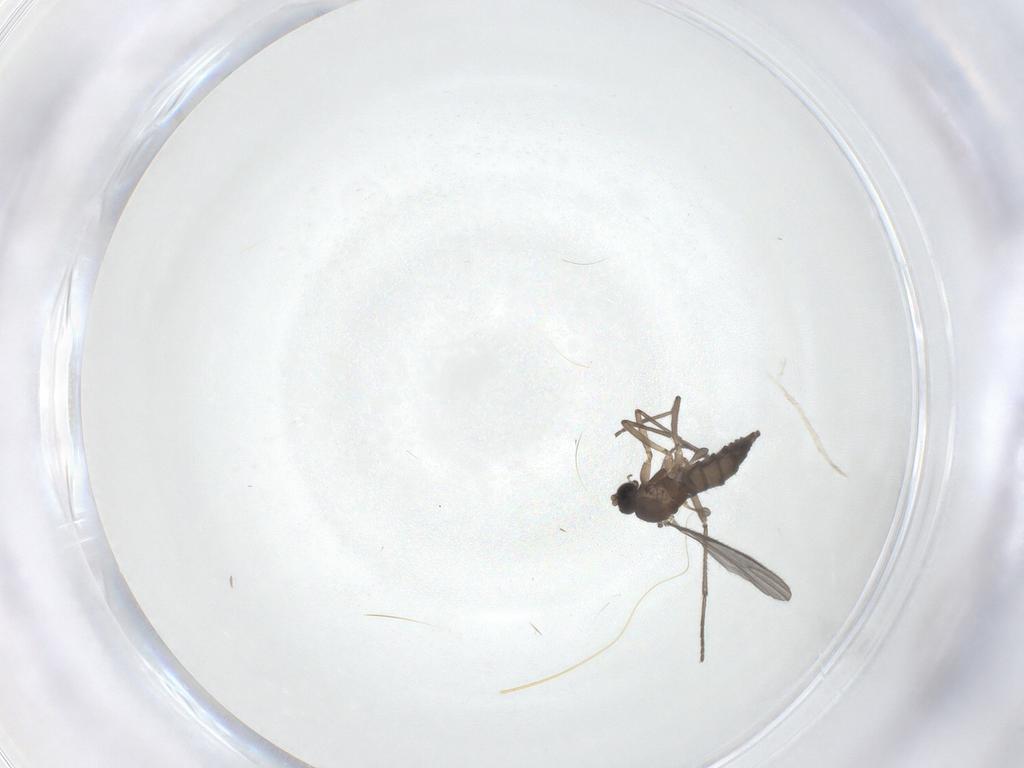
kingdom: Animalia
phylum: Arthropoda
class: Insecta
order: Diptera
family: Sciaridae
